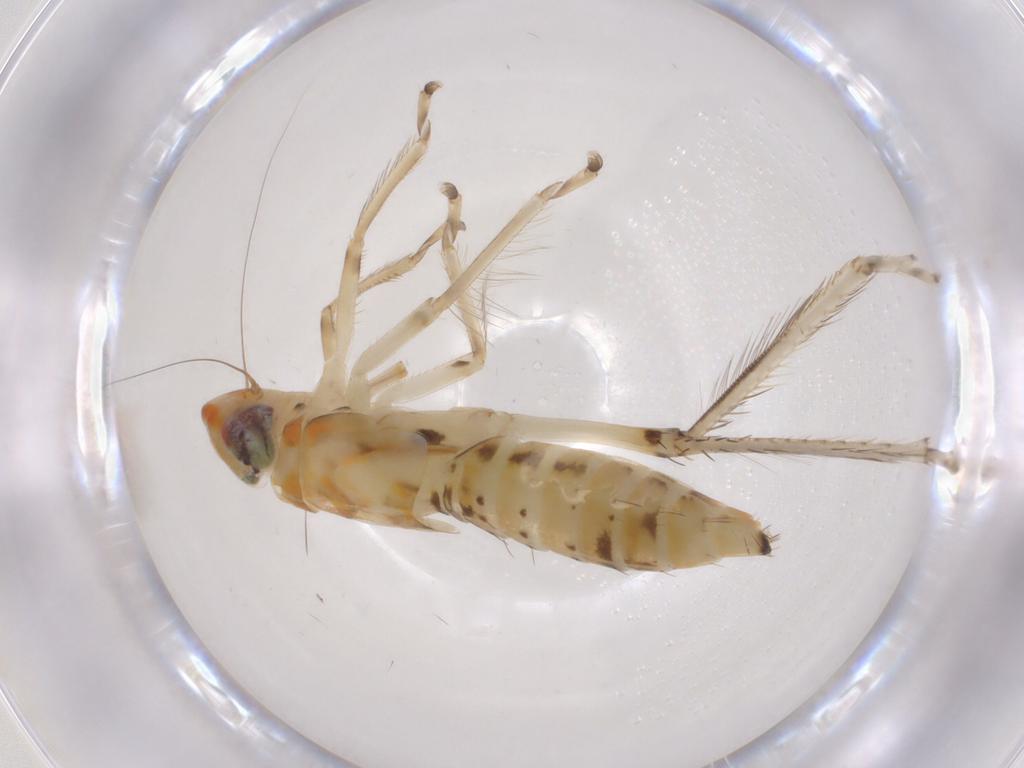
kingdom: Animalia
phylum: Arthropoda
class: Insecta
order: Hemiptera
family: Cicadellidae
